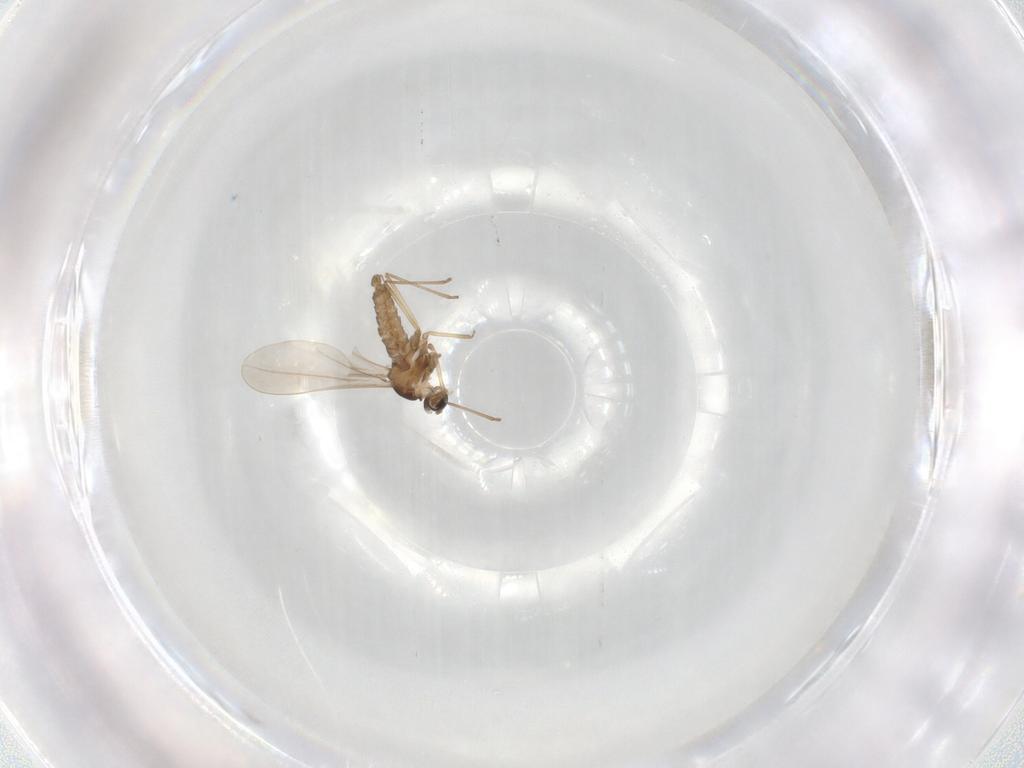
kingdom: Animalia
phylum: Arthropoda
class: Insecta
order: Diptera
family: Cecidomyiidae
